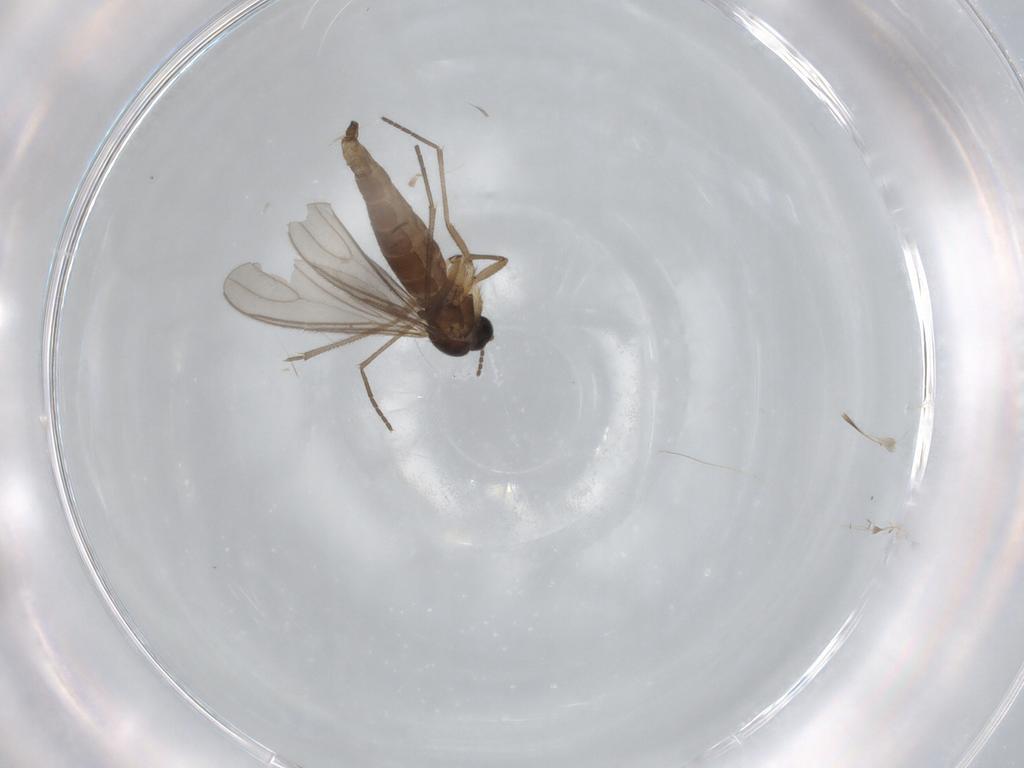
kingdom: Animalia
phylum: Arthropoda
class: Insecta
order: Diptera
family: Sciaridae
